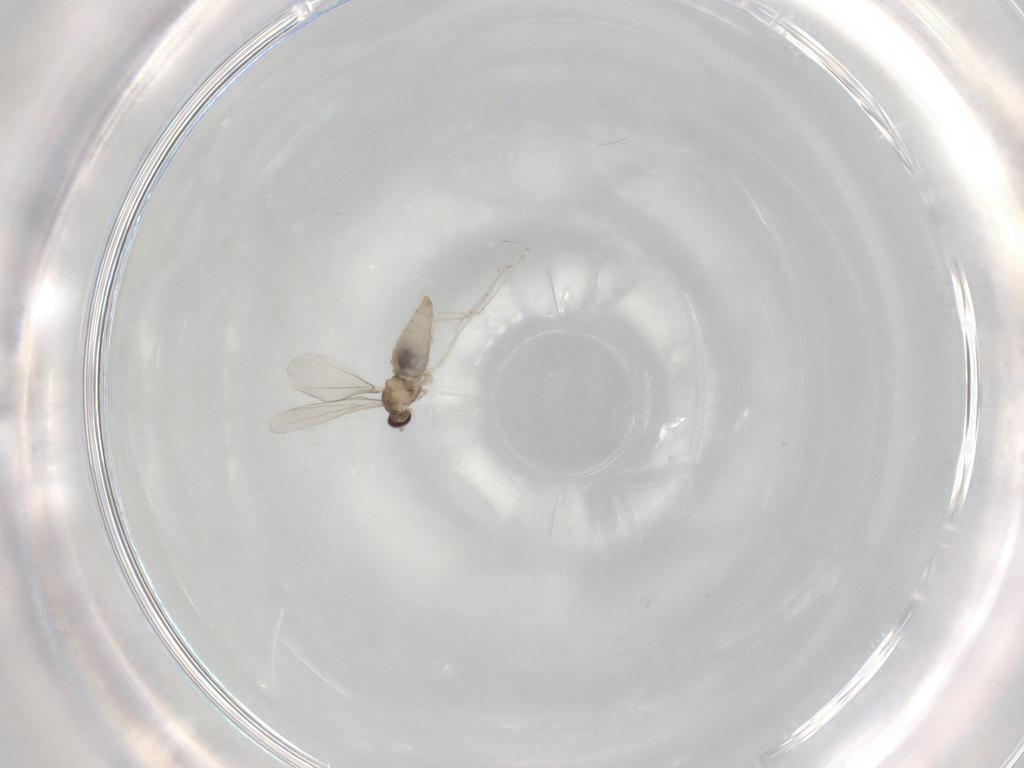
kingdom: Animalia
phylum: Arthropoda
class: Insecta
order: Diptera
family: Cecidomyiidae
